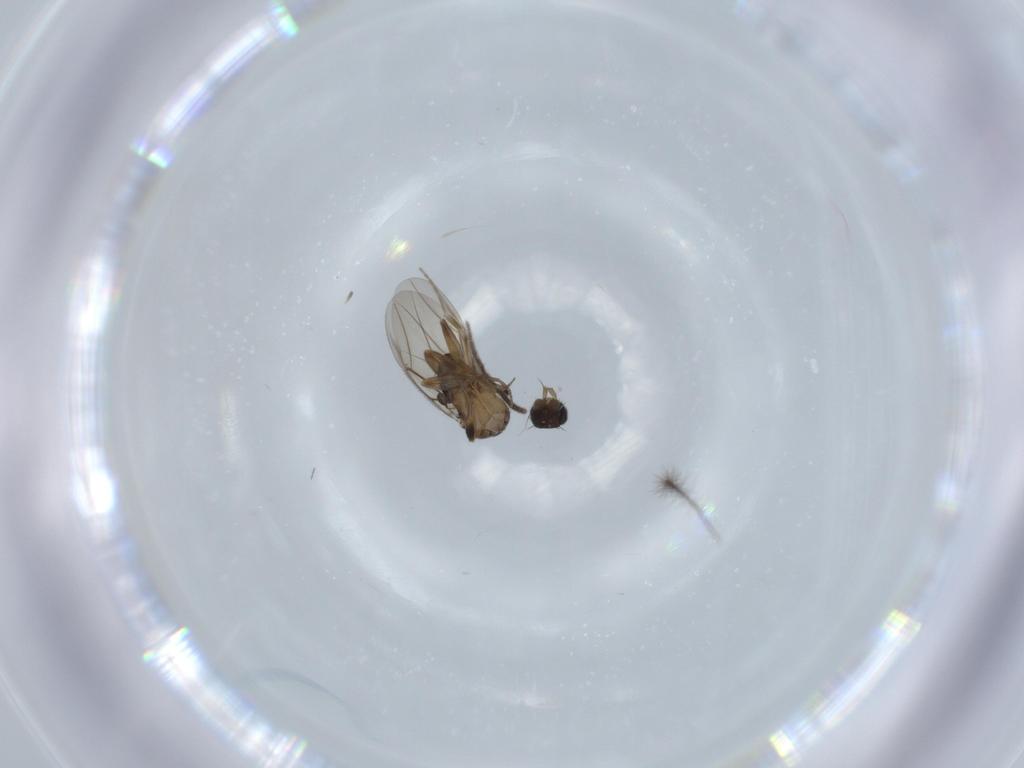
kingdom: Animalia
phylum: Arthropoda
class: Insecta
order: Diptera
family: Phoridae
